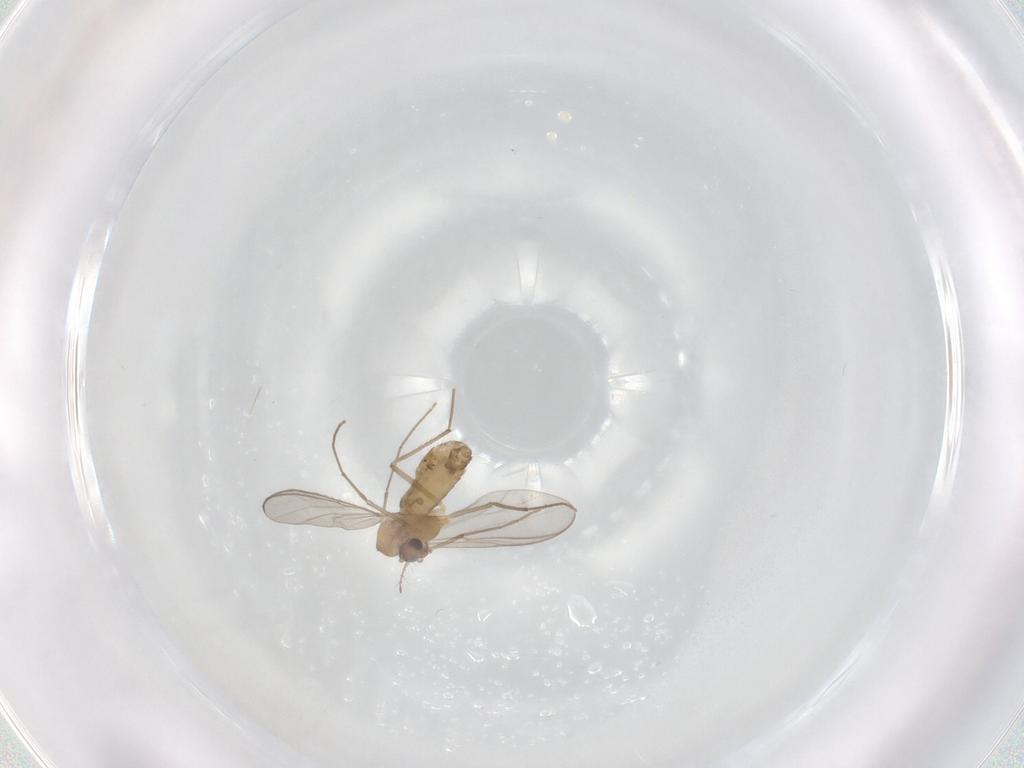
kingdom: Animalia
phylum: Arthropoda
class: Insecta
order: Diptera
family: Chironomidae
